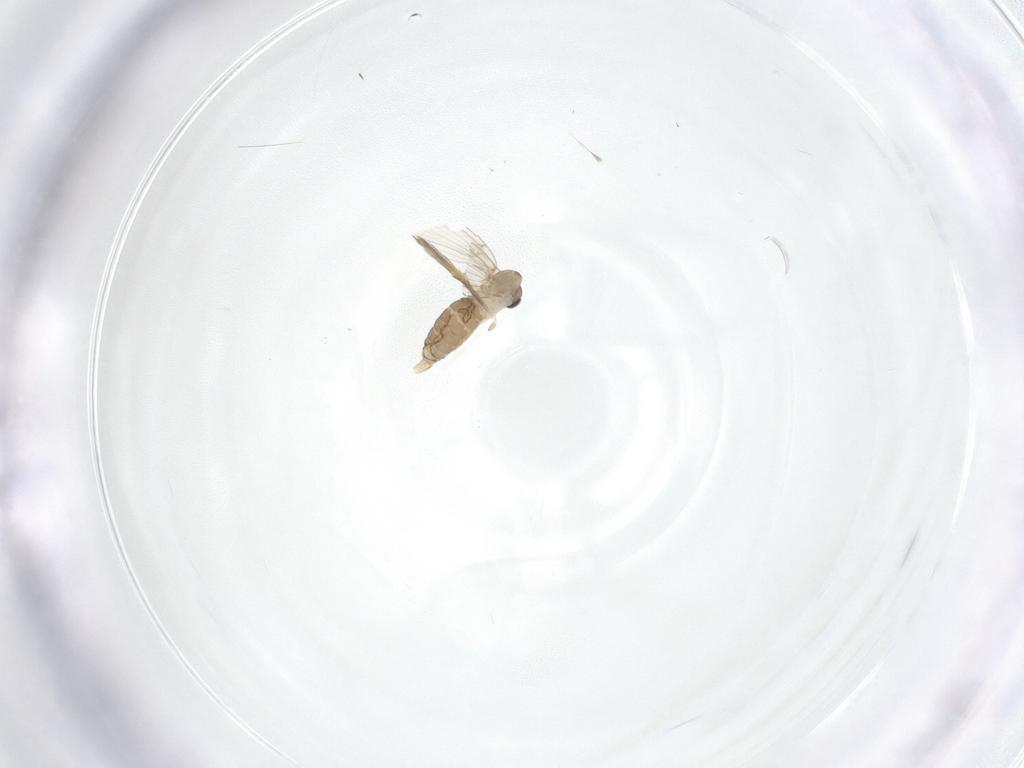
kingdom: Animalia
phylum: Arthropoda
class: Insecta
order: Diptera
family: Psychodidae
